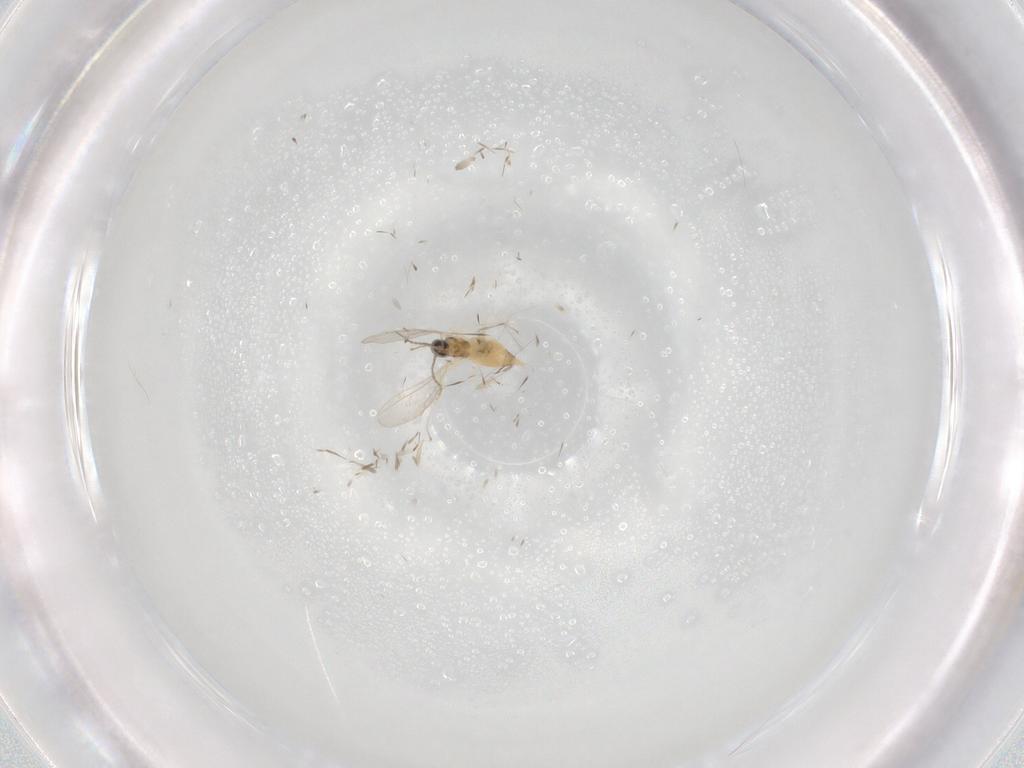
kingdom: Animalia
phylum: Arthropoda
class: Insecta
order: Diptera
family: Cecidomyiidae
